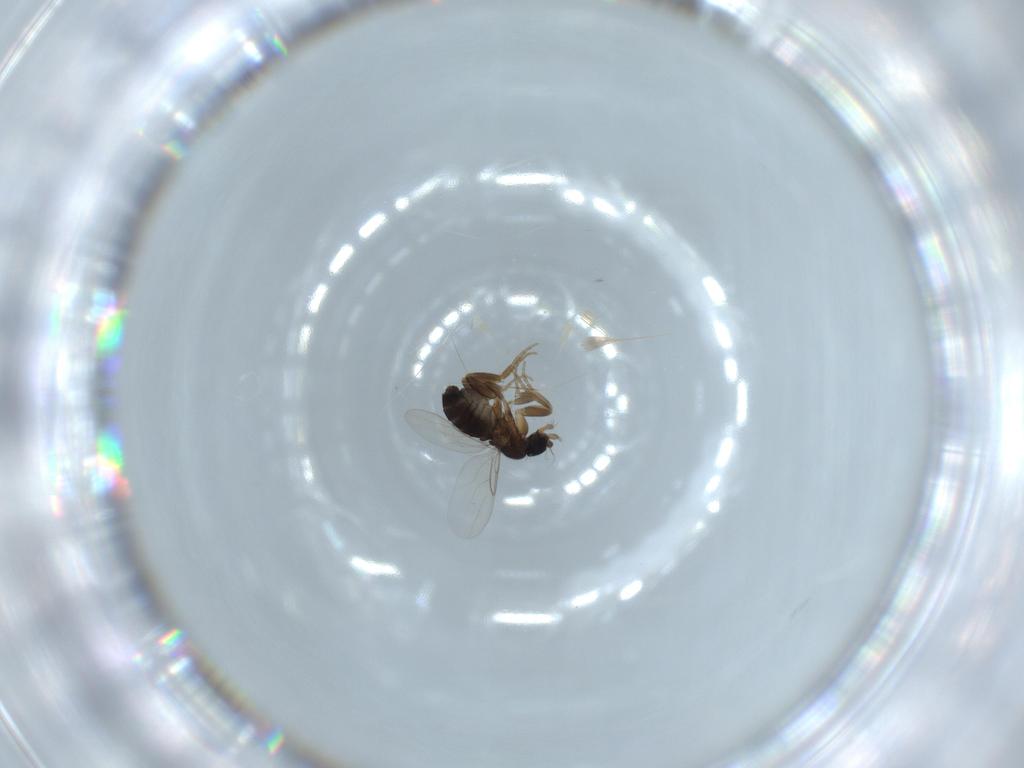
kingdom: Animalia
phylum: Arthropoda
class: Insecta
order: Diptera
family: Phoridae
